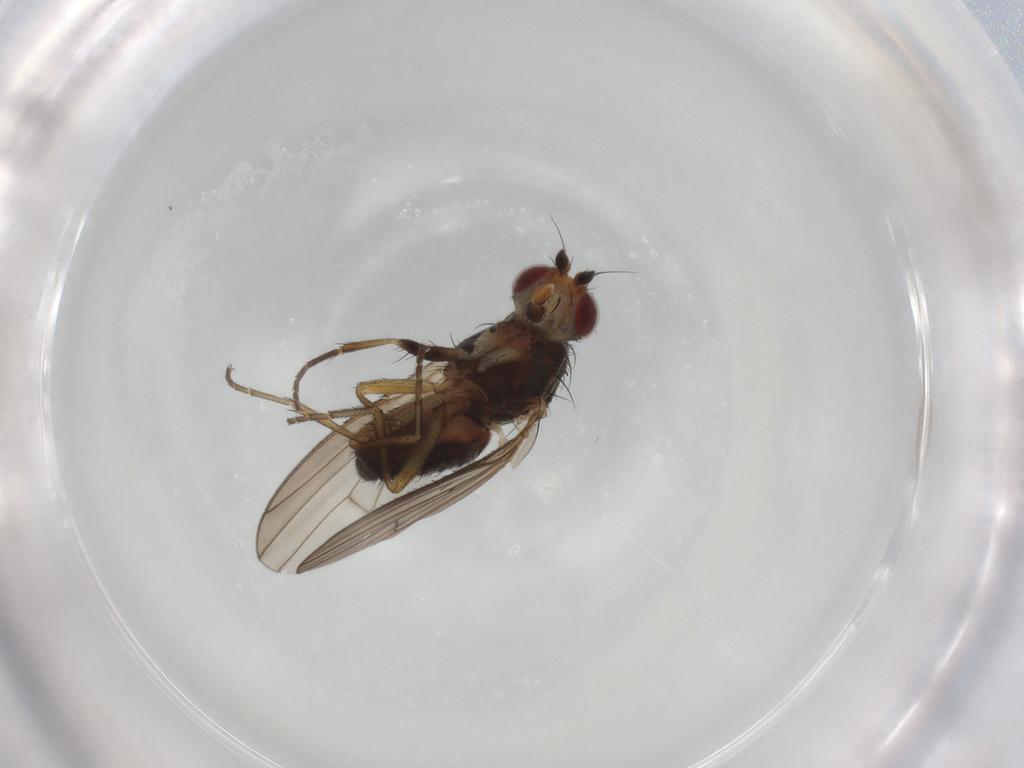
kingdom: Animalia
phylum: Arthropoda
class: Insecta
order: Diptera
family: Heleomyzidae
